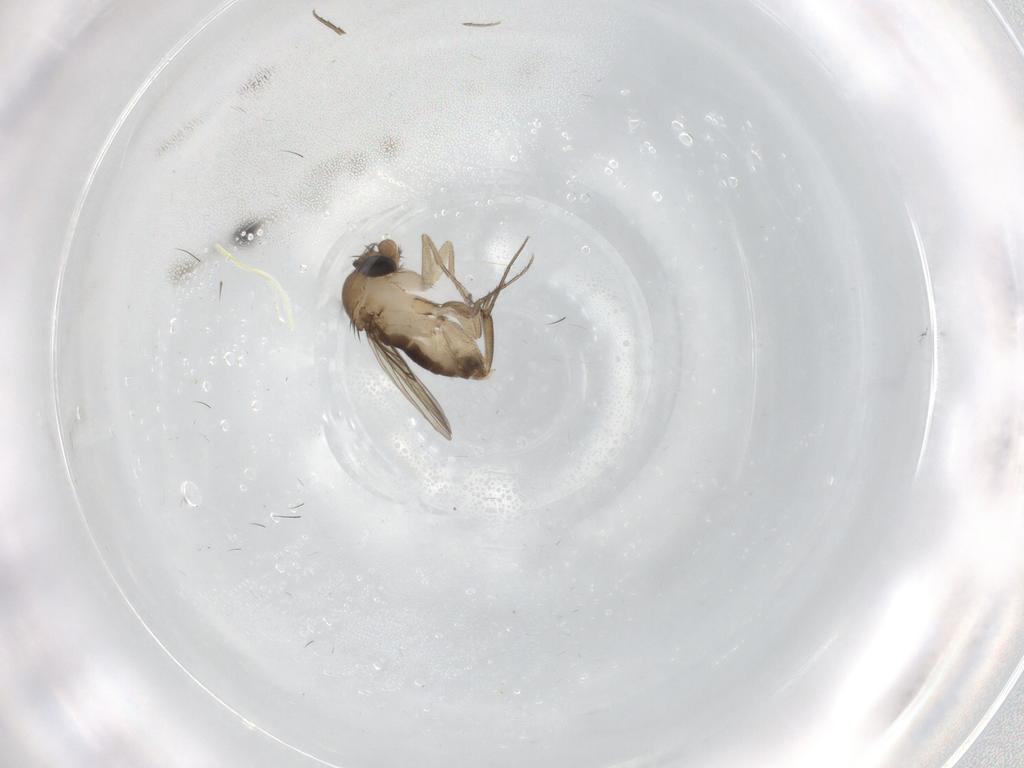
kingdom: Animalia
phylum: Arthropoda
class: Insecta
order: Diptera
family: Phoridae
